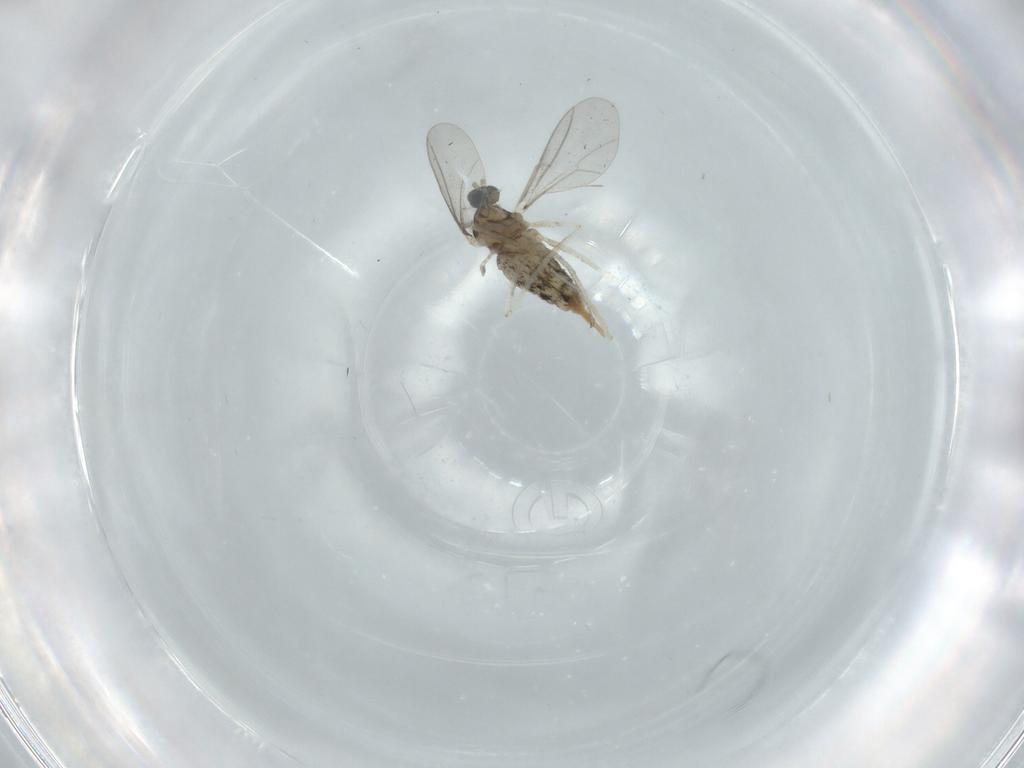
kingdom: Animalia
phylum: Arthropoda
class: Insecta
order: Diptera
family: Cecidomyiidae
